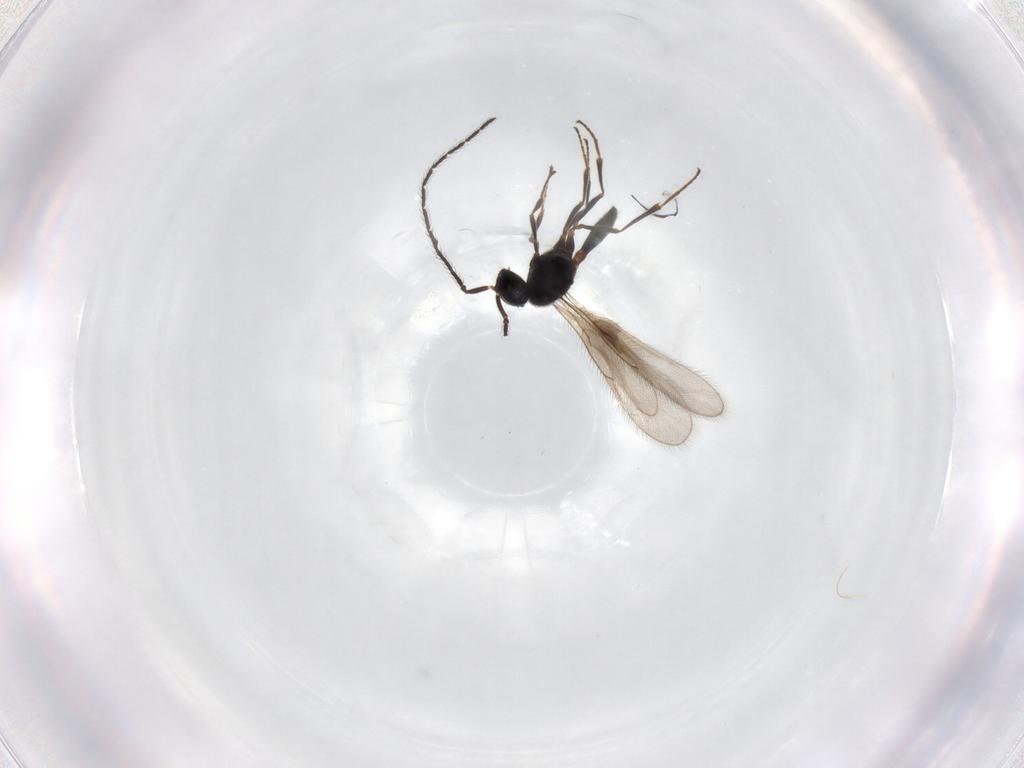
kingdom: Animalia
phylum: Arthropoda
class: Insecta
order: Hymenoptera
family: Scelionidae
